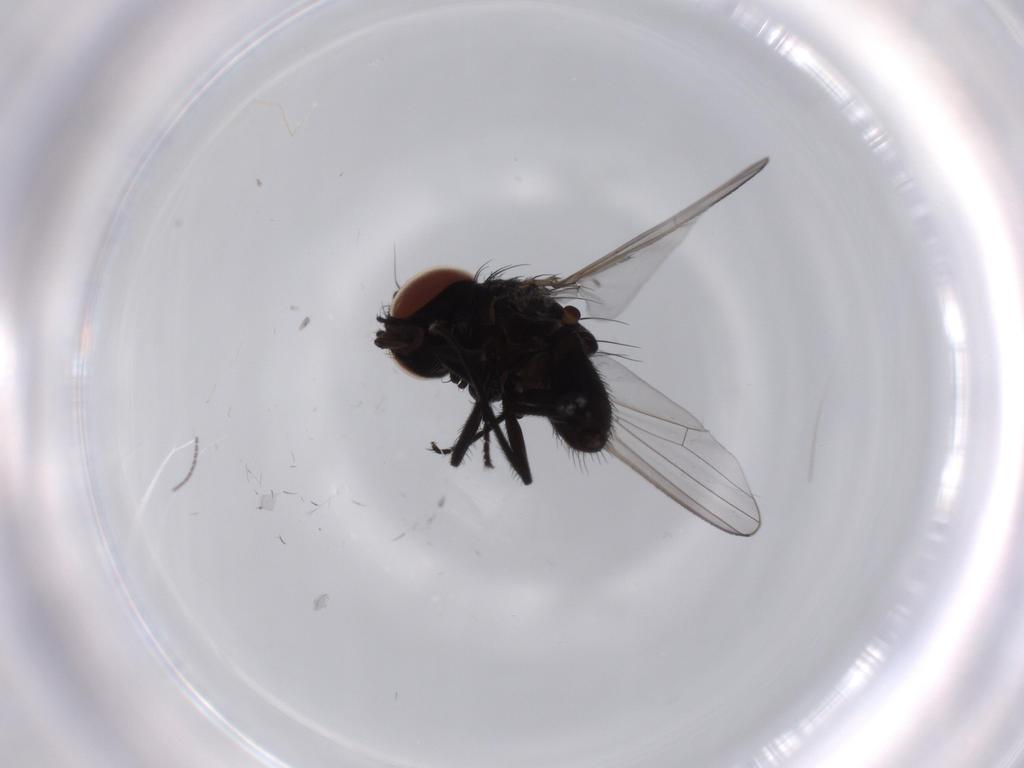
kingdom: Animalia
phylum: Arthropoda
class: Insecta
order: Diptera
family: Milichiidae
